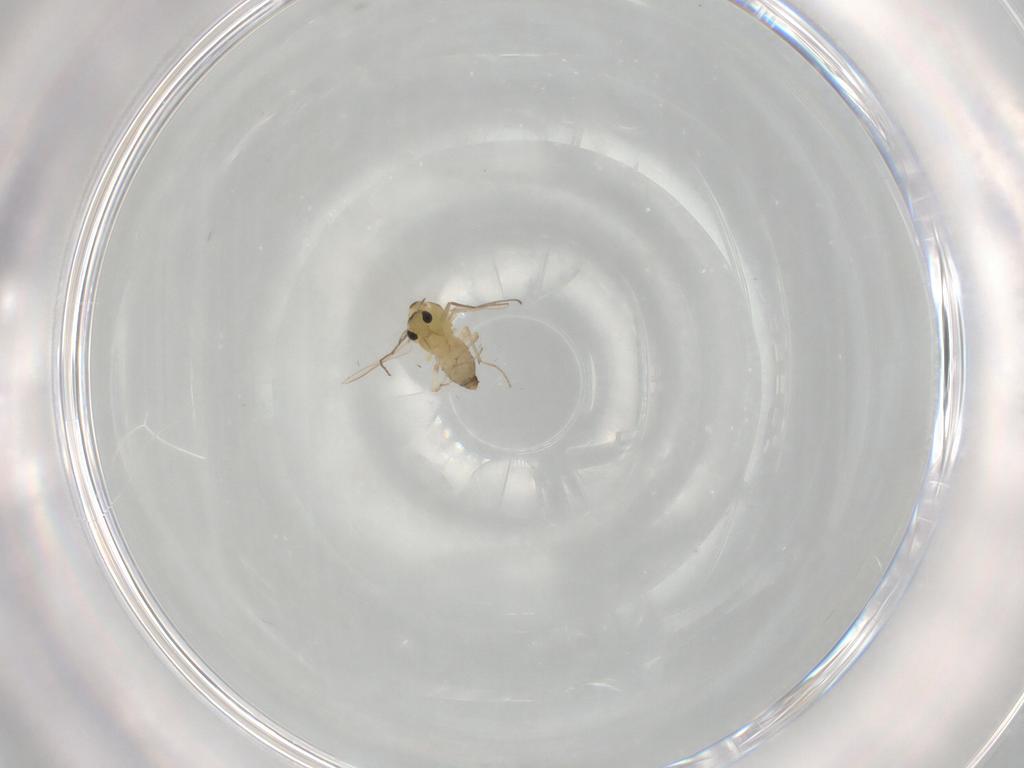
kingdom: Animalia
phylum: Arthropoda
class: Insecta
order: Diptera
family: Chironomidae
